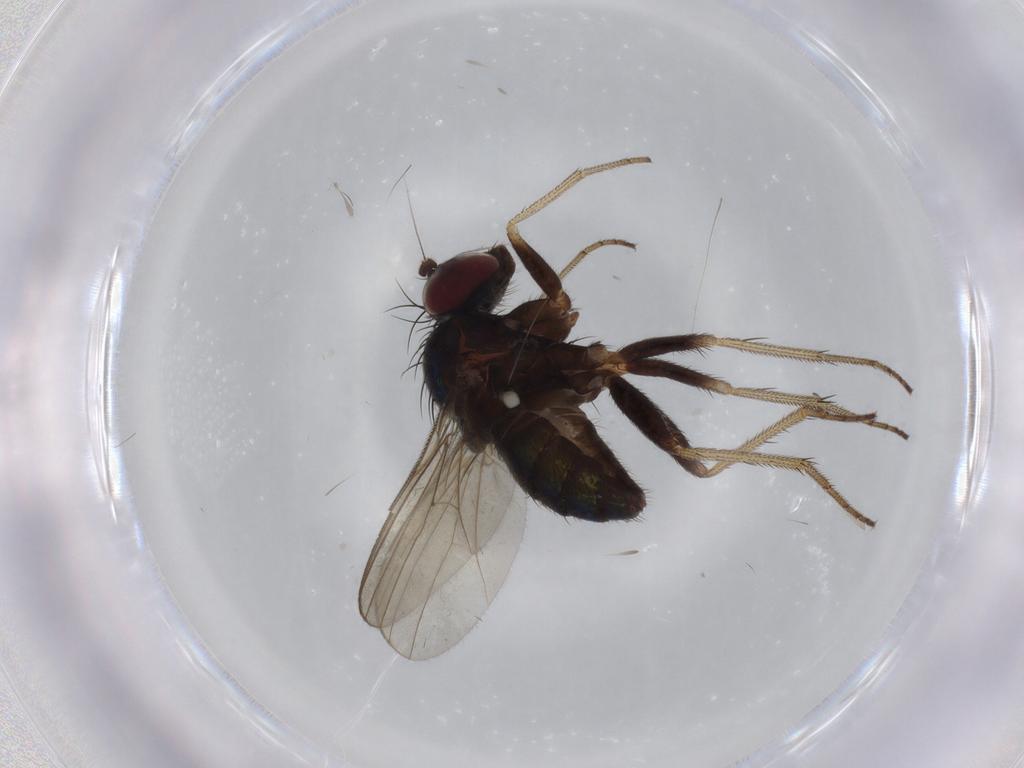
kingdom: Animalia
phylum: Arthropoda
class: Insecta
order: Diptera
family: Dolichopodidae
